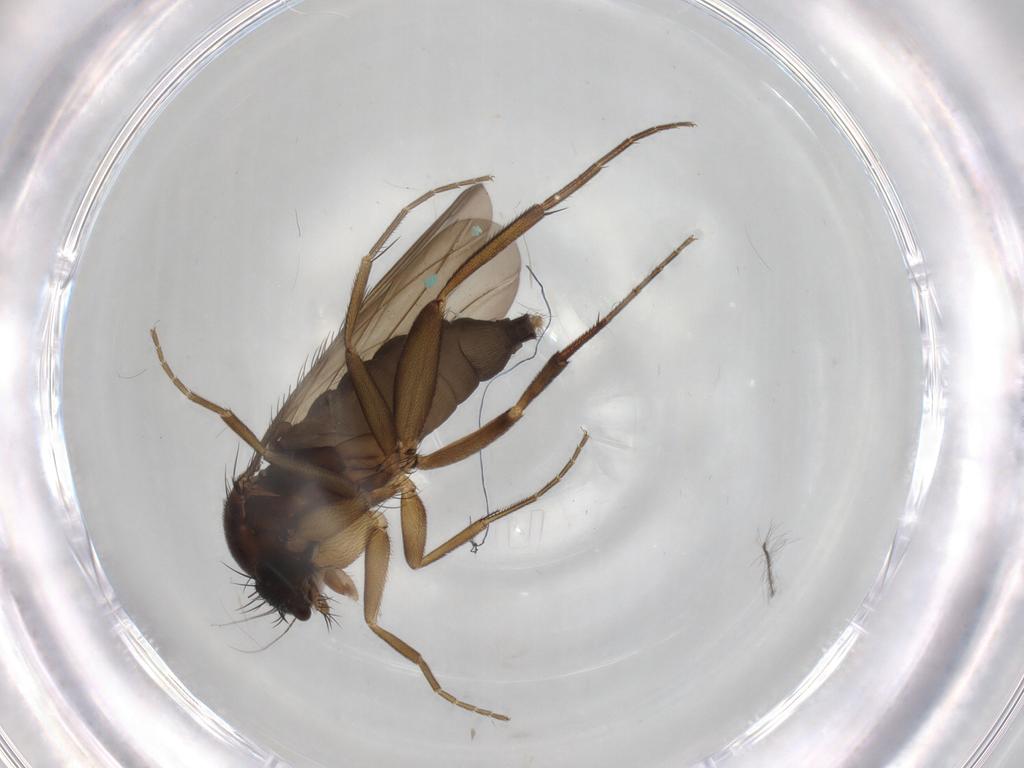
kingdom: Animalia
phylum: Arthropoda
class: Insecta
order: Diptera
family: Phoridae
